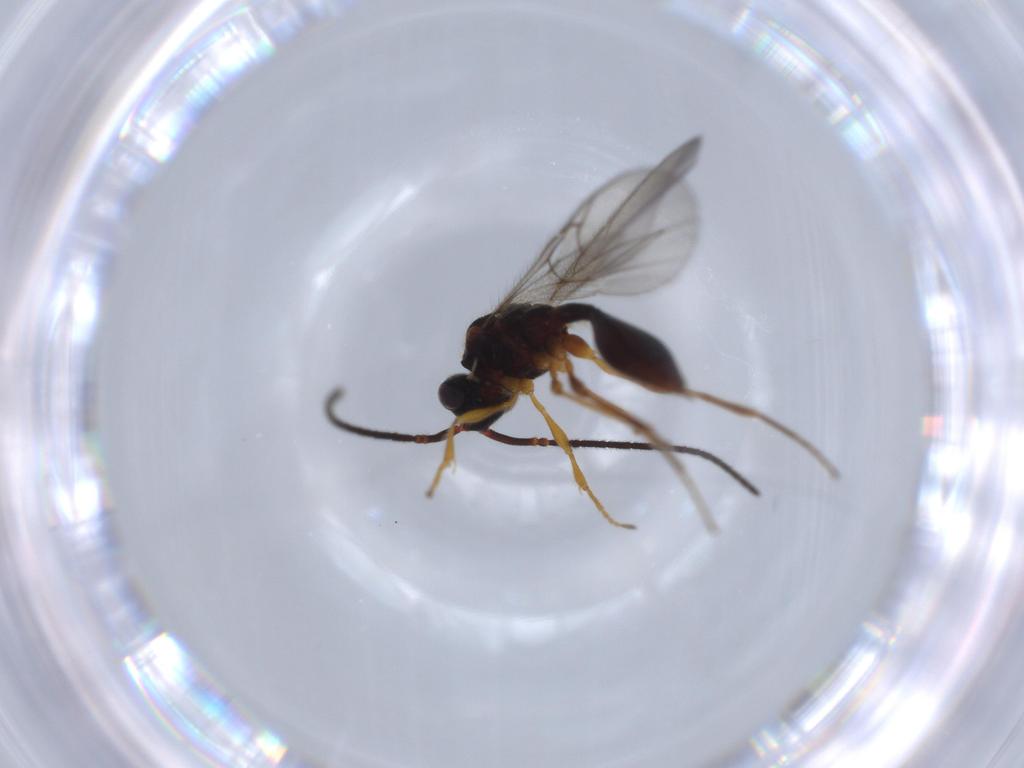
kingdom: Animalia
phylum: Arthropoda
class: Insecta
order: Hymenoptera
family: Diapriidae
